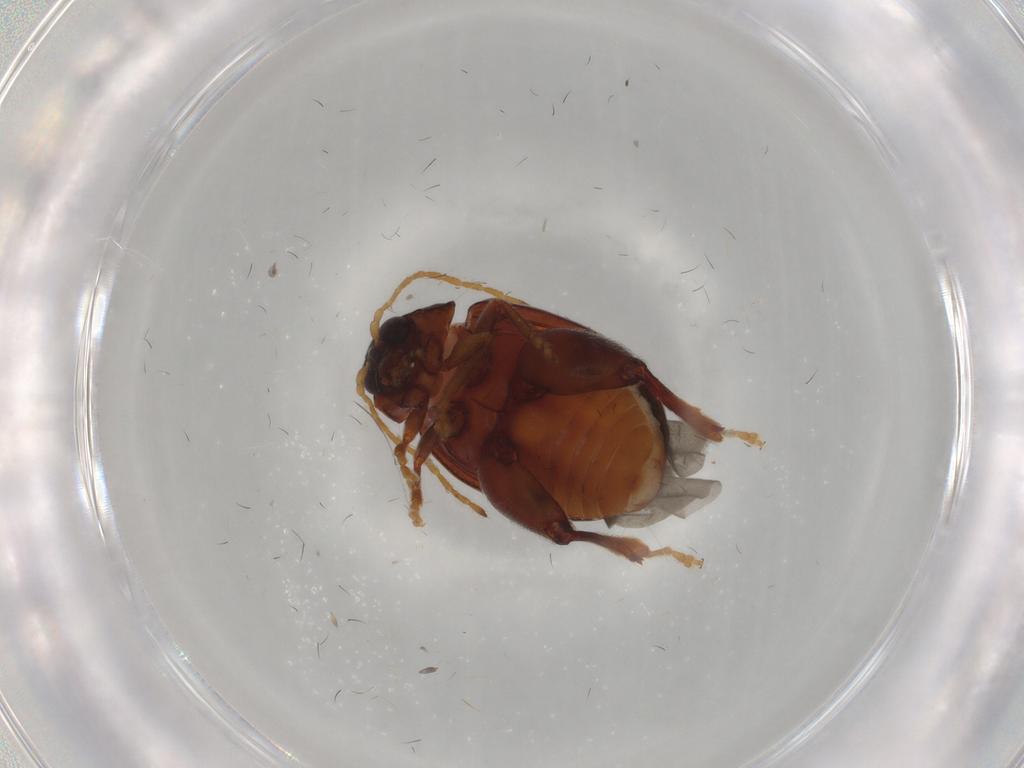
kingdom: Animalia
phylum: Arthropoda
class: Insecta
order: Coleoptera
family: Chrysomelidae
